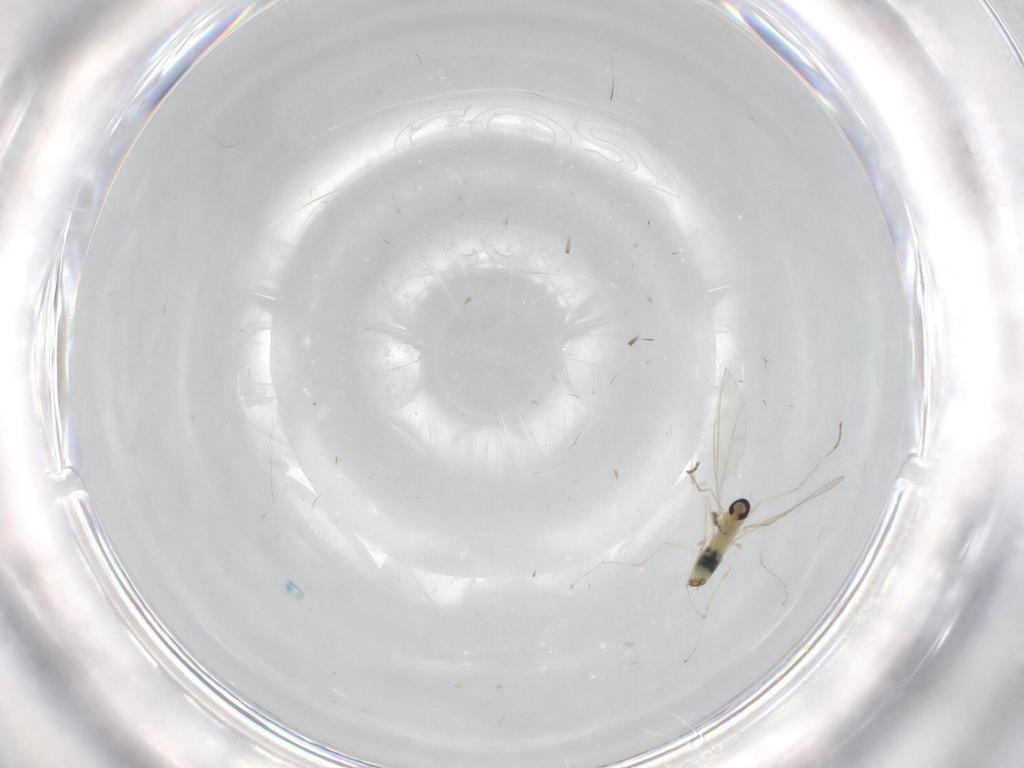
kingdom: Animalia
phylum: Arthropoda
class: Insecta
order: Diptera
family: Cecidomyiidae
